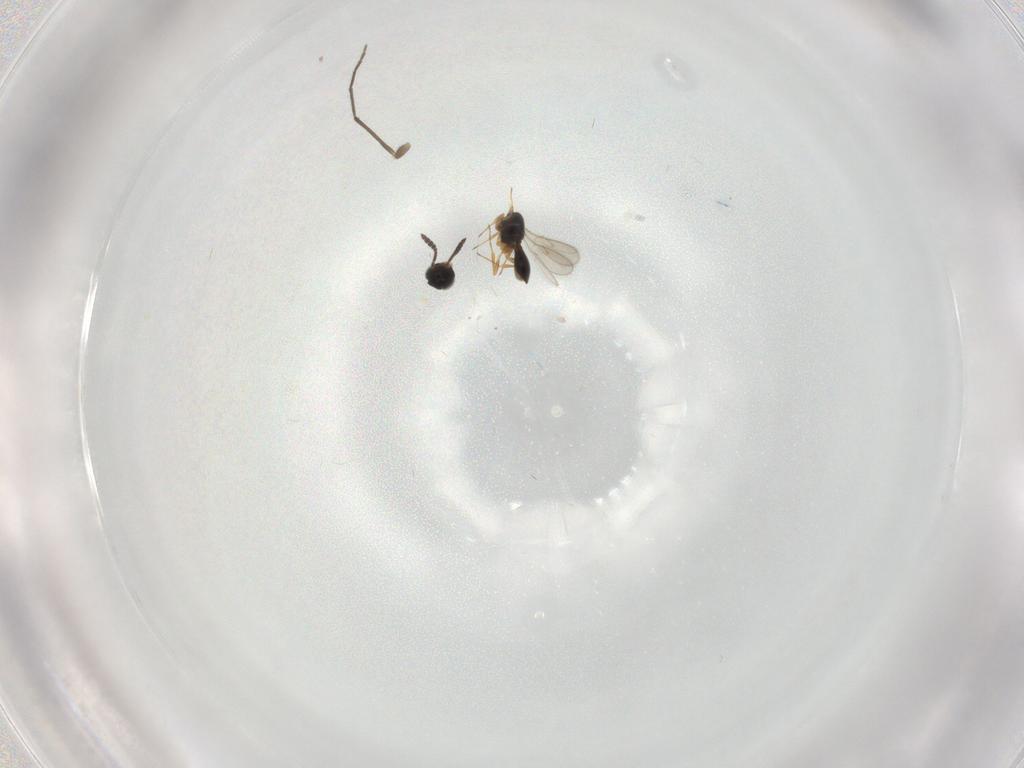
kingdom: Animalia
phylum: Arthropoda
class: Insecta
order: Hymenoptera
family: Scelionidae
